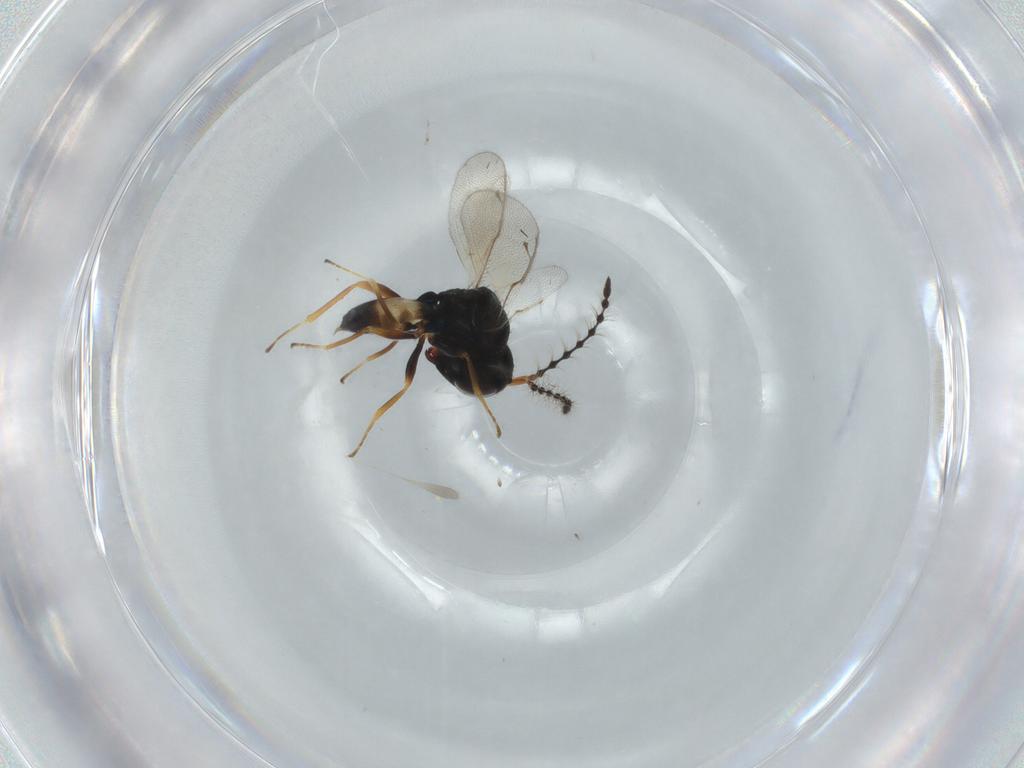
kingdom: Animalia
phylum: Arthropoda
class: Insecta
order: Hymenoptera
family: Pteromalidae
